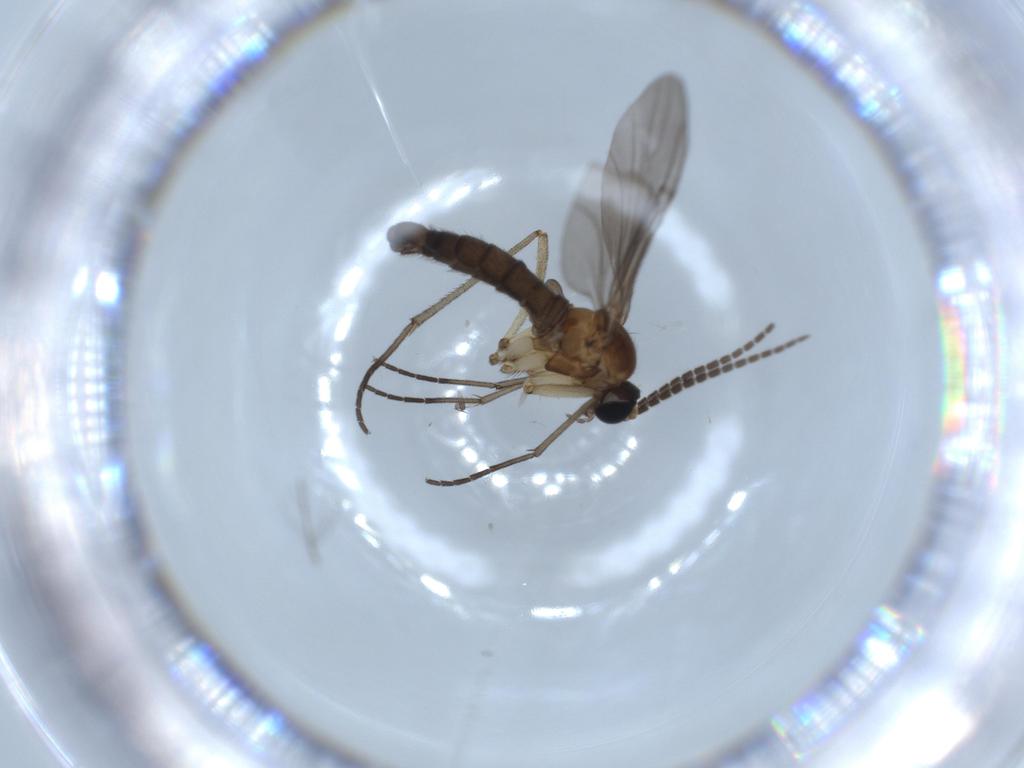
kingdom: Animalia
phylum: Arthropoda
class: Insecta
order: Diptera
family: Sciaridae
